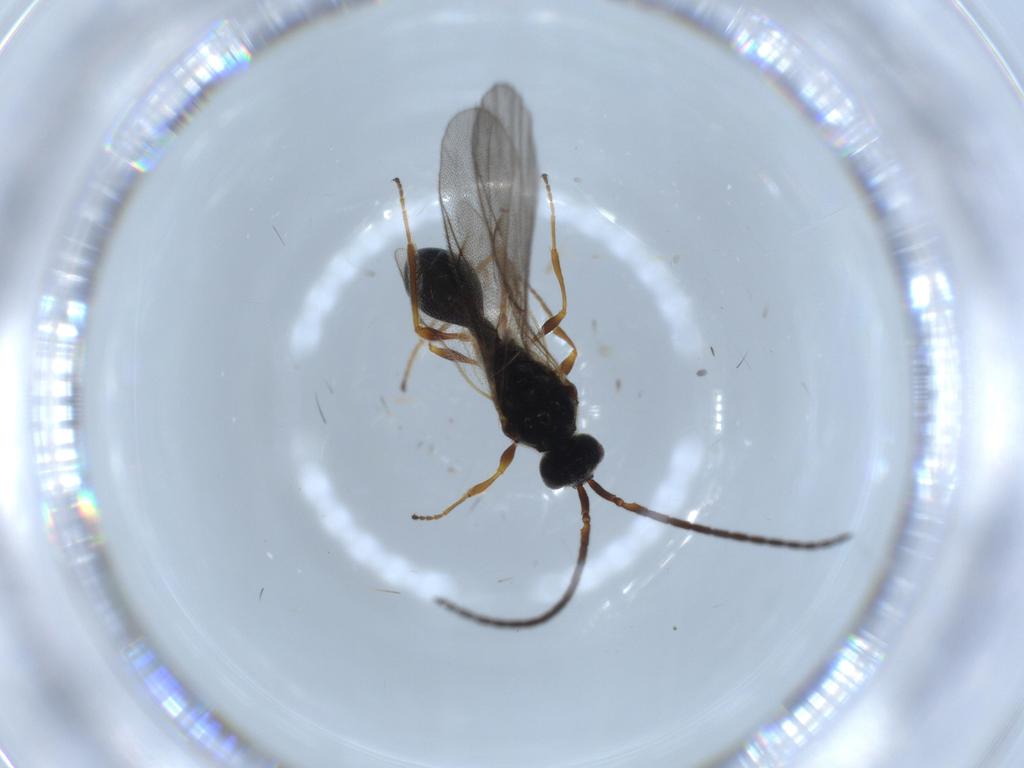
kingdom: Animalia
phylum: Arthropoda
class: Insecta
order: Hymenoptera
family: Diapriidae
